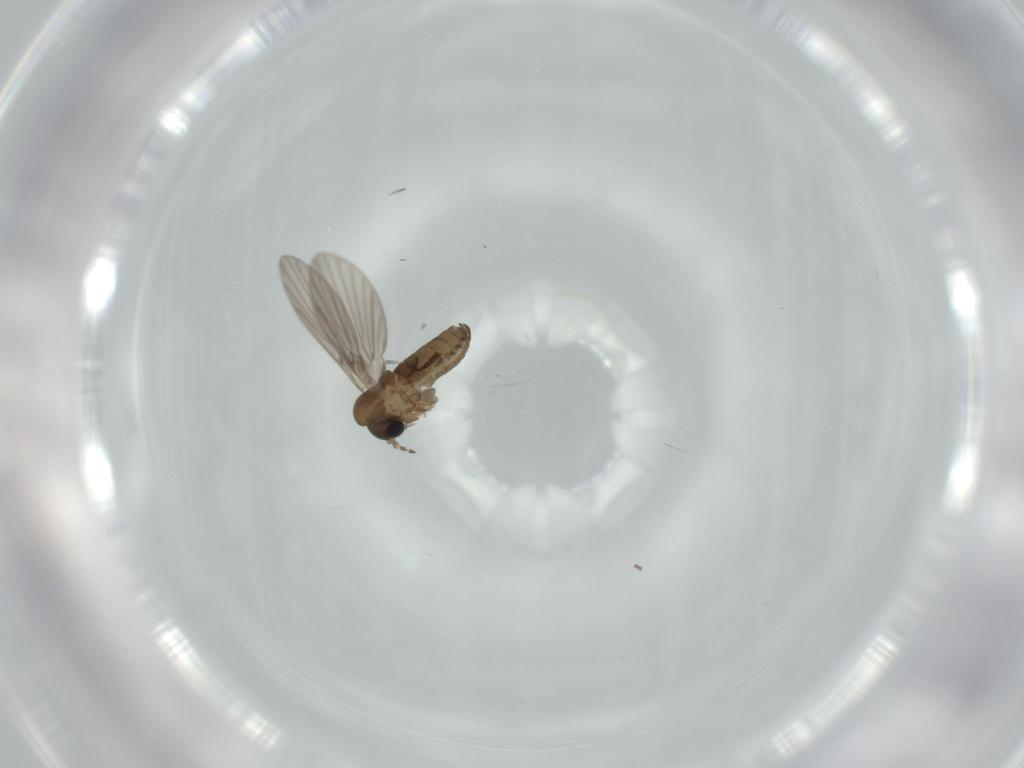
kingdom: Animalia
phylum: Arthropoda
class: Insecta
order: Diptera
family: Psychodidae
